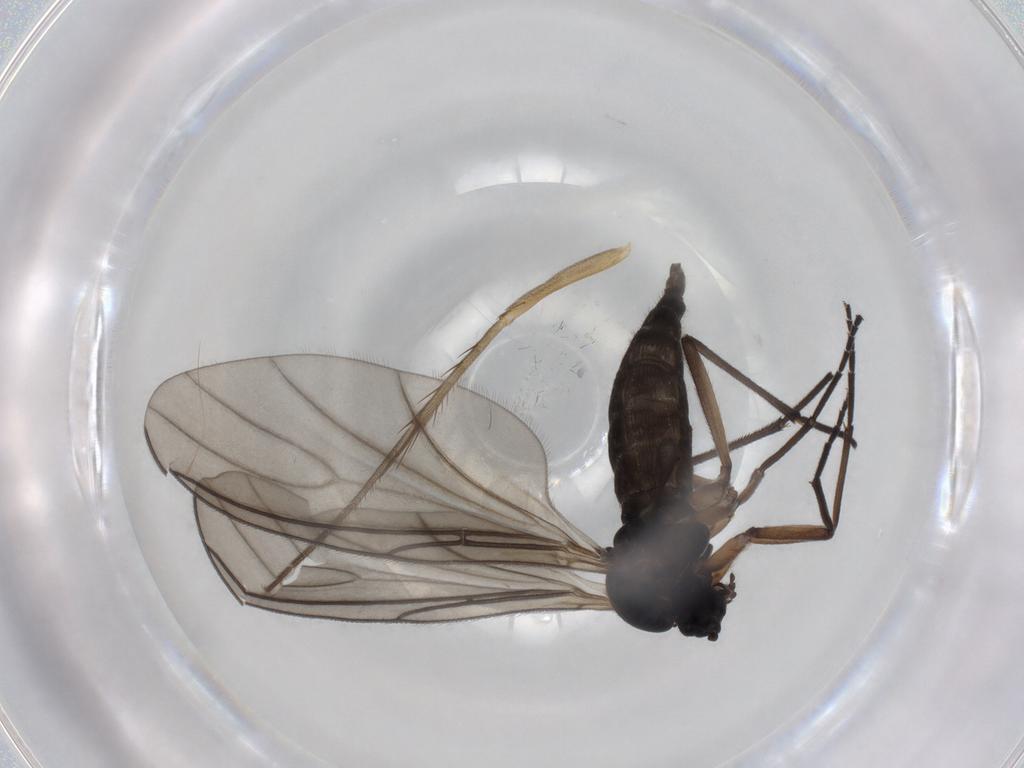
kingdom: Animalia
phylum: Arthropoda
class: Insecta
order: Diptera
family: Sciaridae
